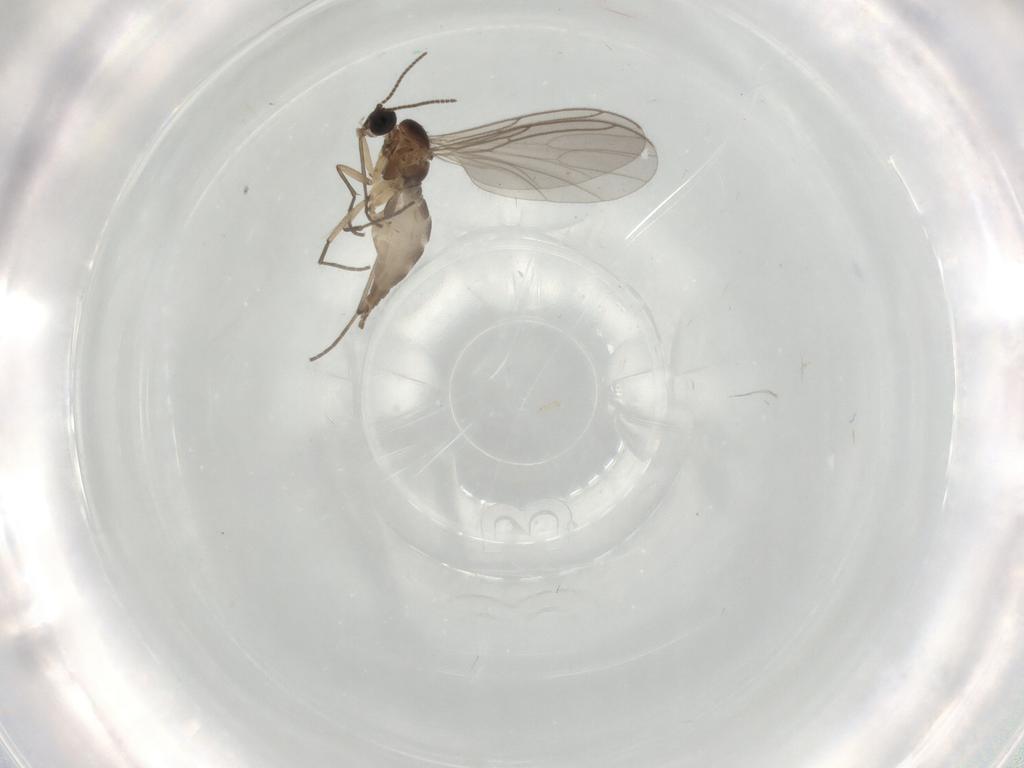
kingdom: Animalia
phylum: Arthropoda
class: Insecta
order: Diptera
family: Sciaridae
